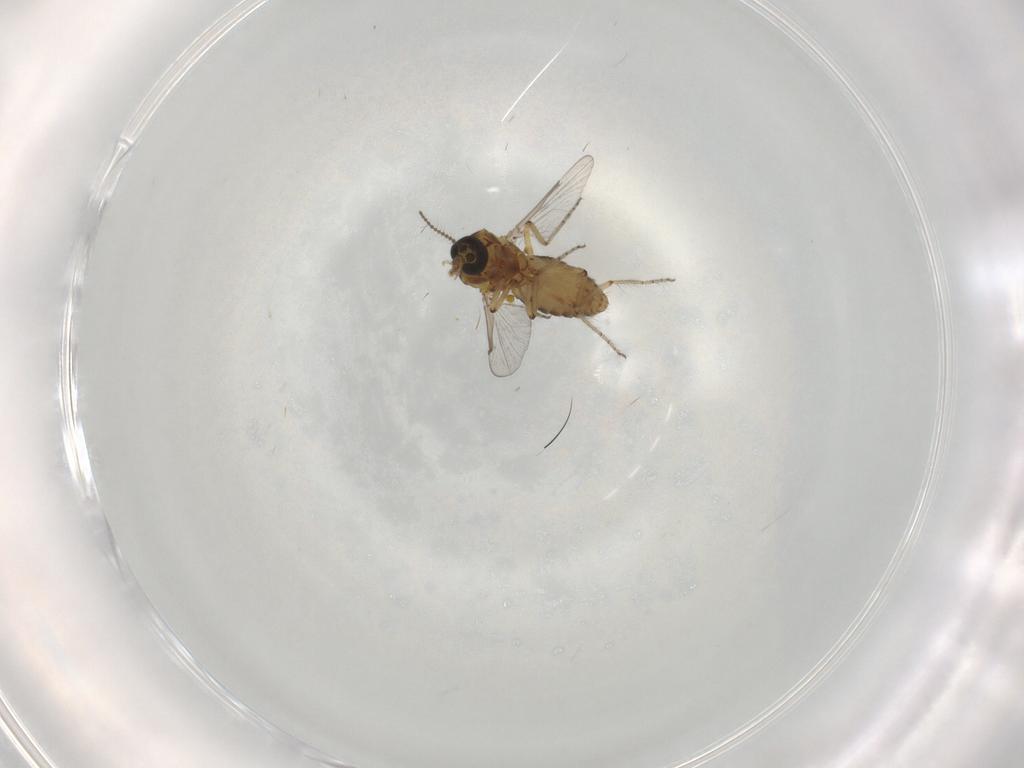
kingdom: Animalia
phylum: Arthropoda
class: Insecta
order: Diptera
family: Ceratopogonidae
